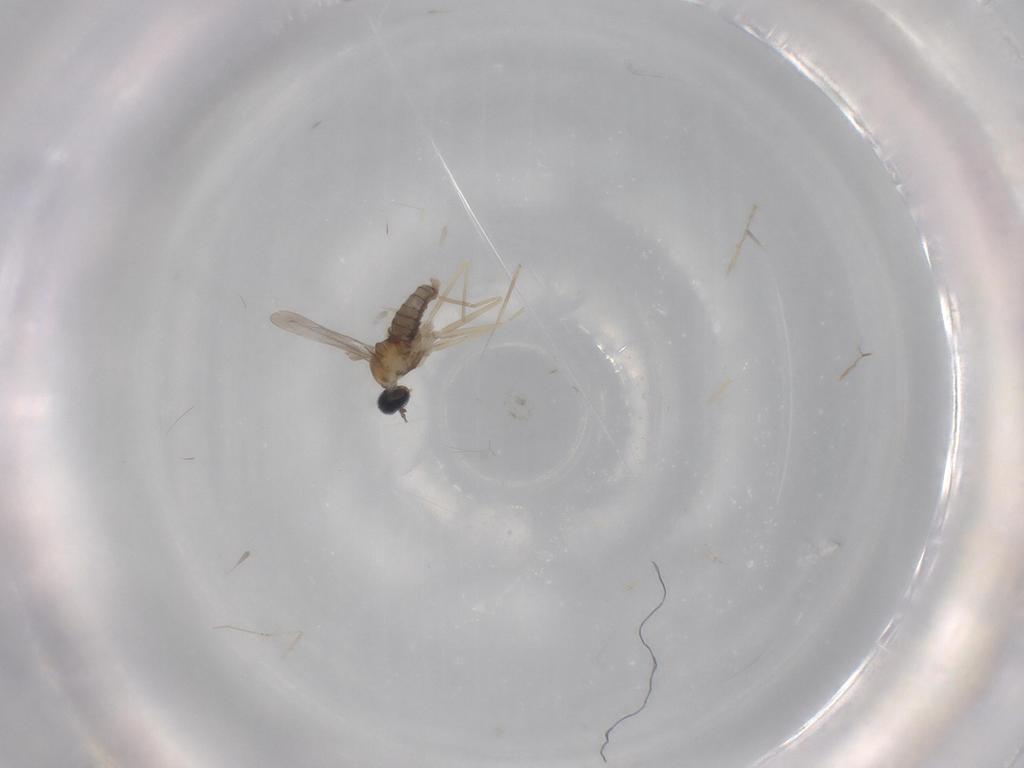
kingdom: Animalia
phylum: Arthropoda
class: Insecta
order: Diptera
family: Cecidomyiidae
